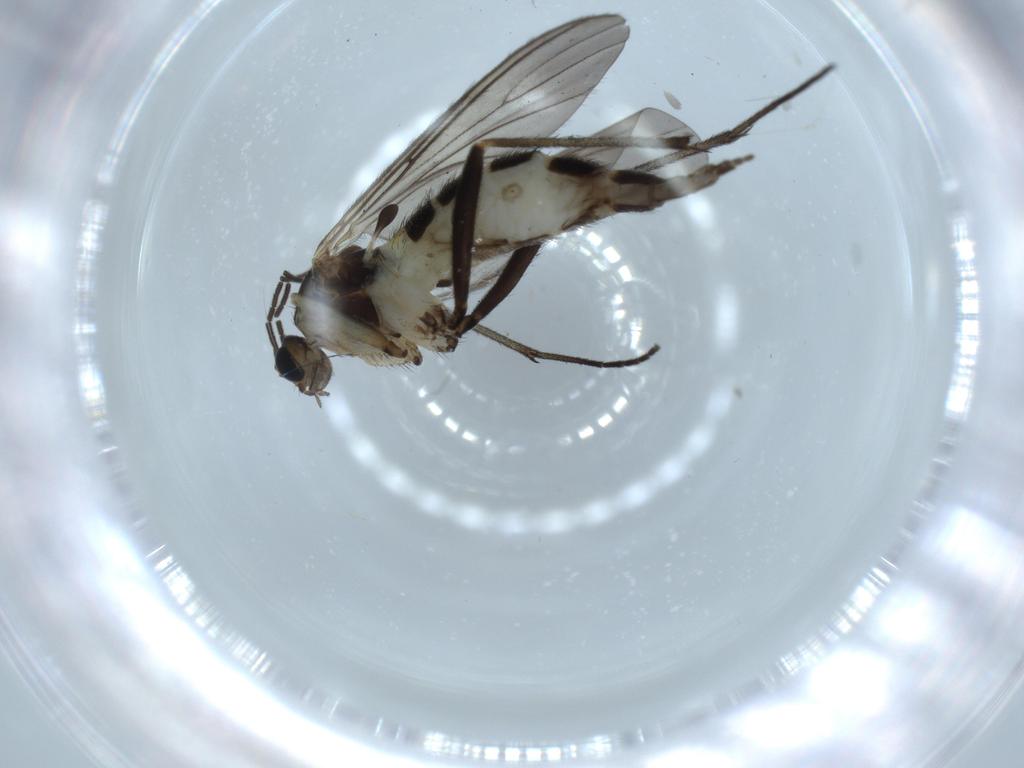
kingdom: Animalia
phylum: Arthropoda
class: Insecta
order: Diptera
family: Sciaridae
